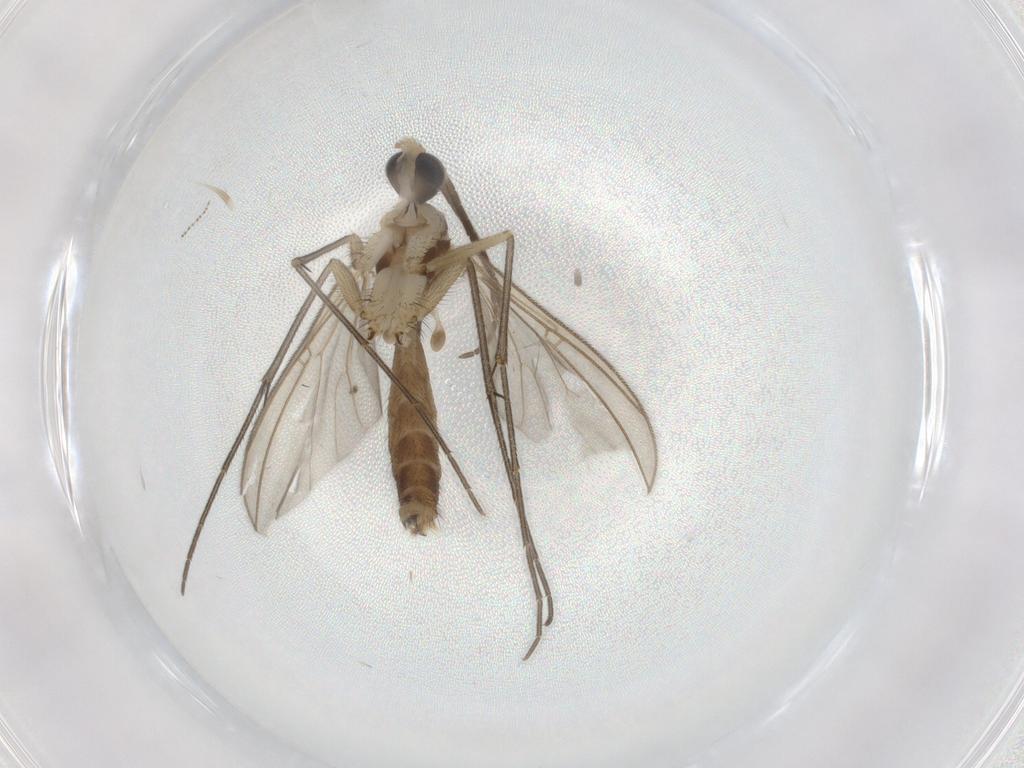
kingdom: Animalia
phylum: Arthropoda
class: Insecta
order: Diptera
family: Mycetophilidae
